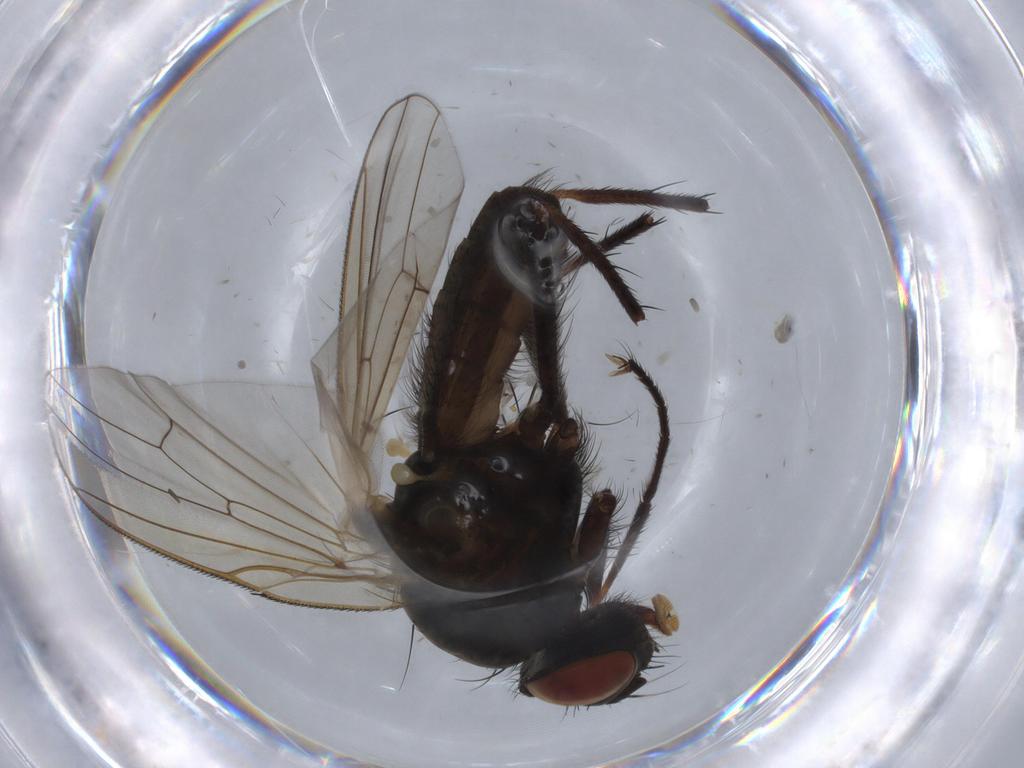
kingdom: Animalia
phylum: Arthropoda
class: Insecta
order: Diptera
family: Anthomyiidae
